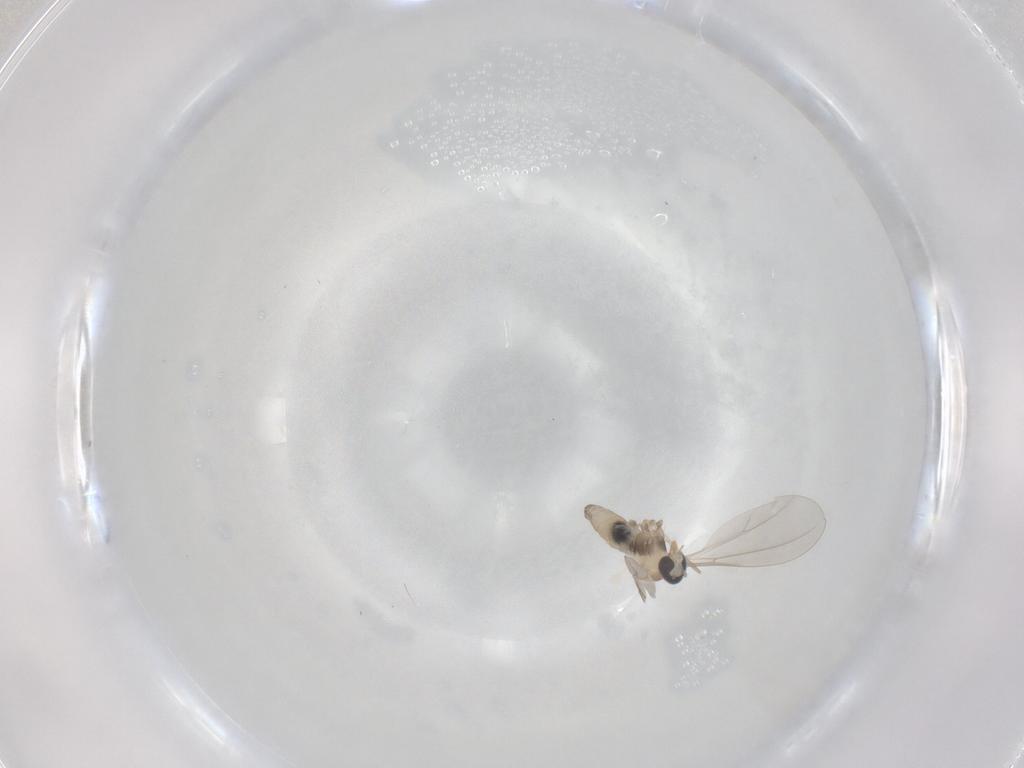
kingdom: Animalia
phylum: Arthropoda
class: Insecta
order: Diptera
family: Cecidomyiidae
